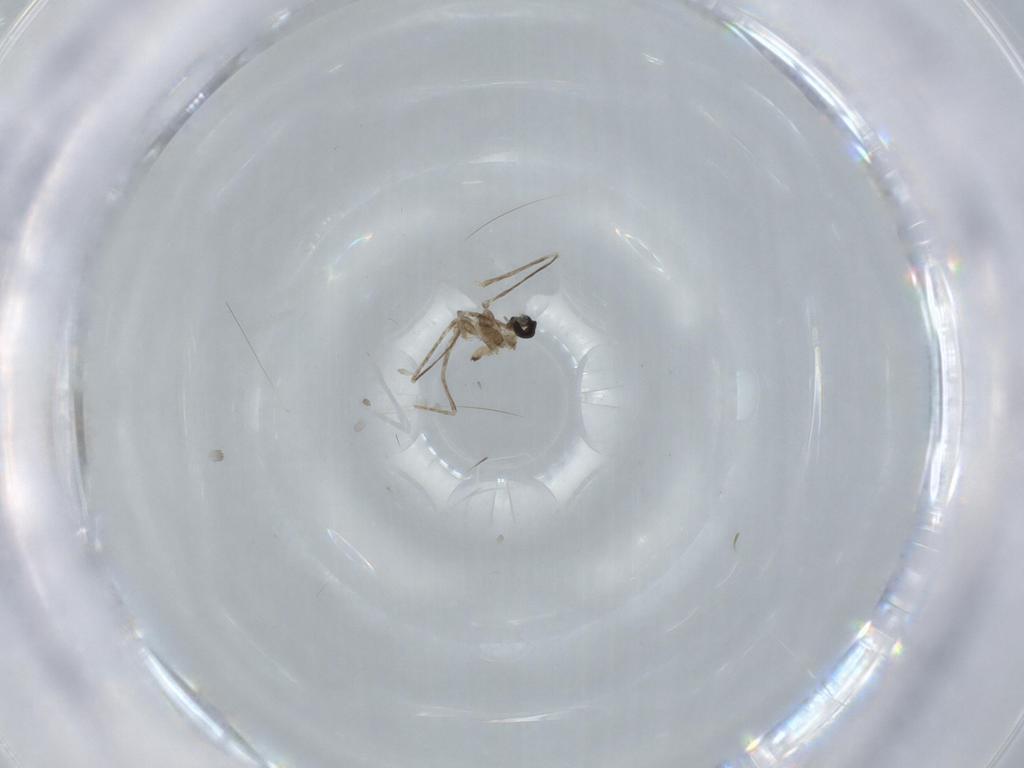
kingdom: Animalia
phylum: Arthropoda
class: Insecta
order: Diptera
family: Cecidomyiidae
